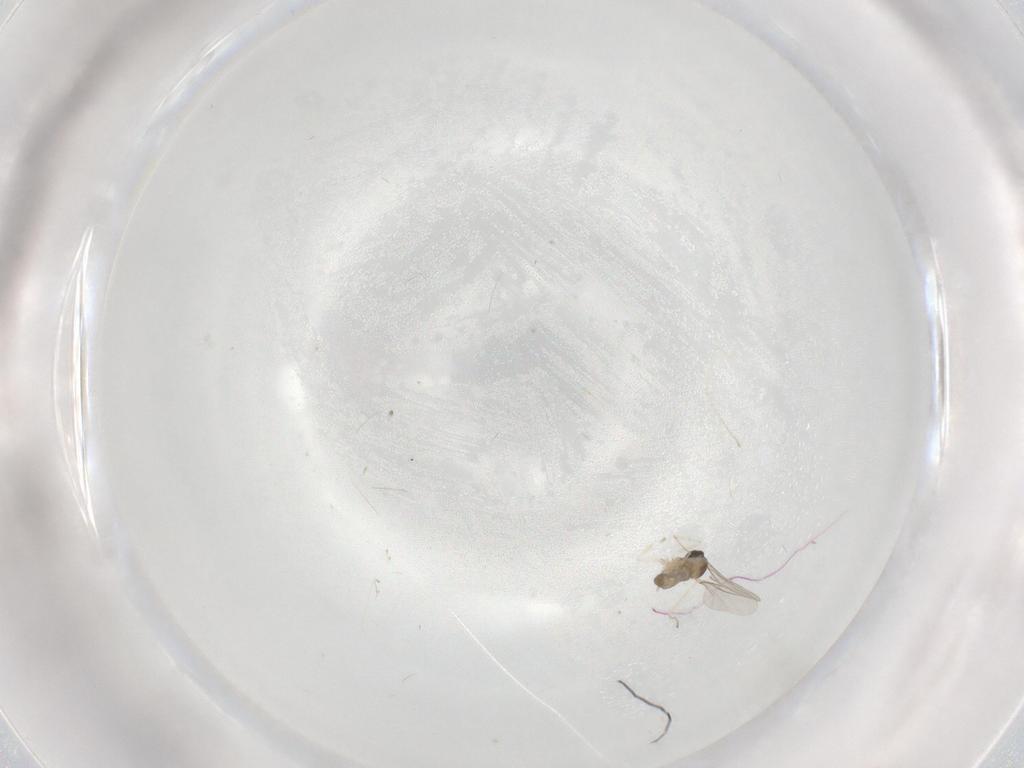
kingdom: Animalia
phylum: Arthropoda
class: Insecta
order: Diptera
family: Cecidomyiidae
